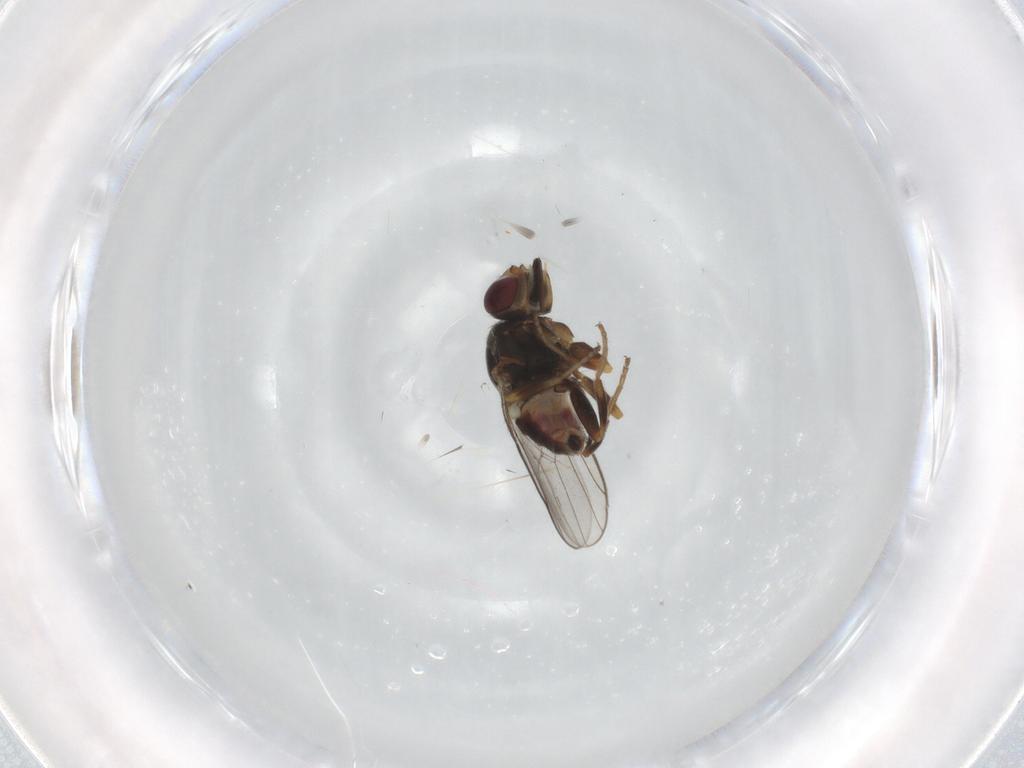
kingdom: Animalia
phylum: Arthropoda
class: Insecta
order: Diptera
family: Chloropidae
